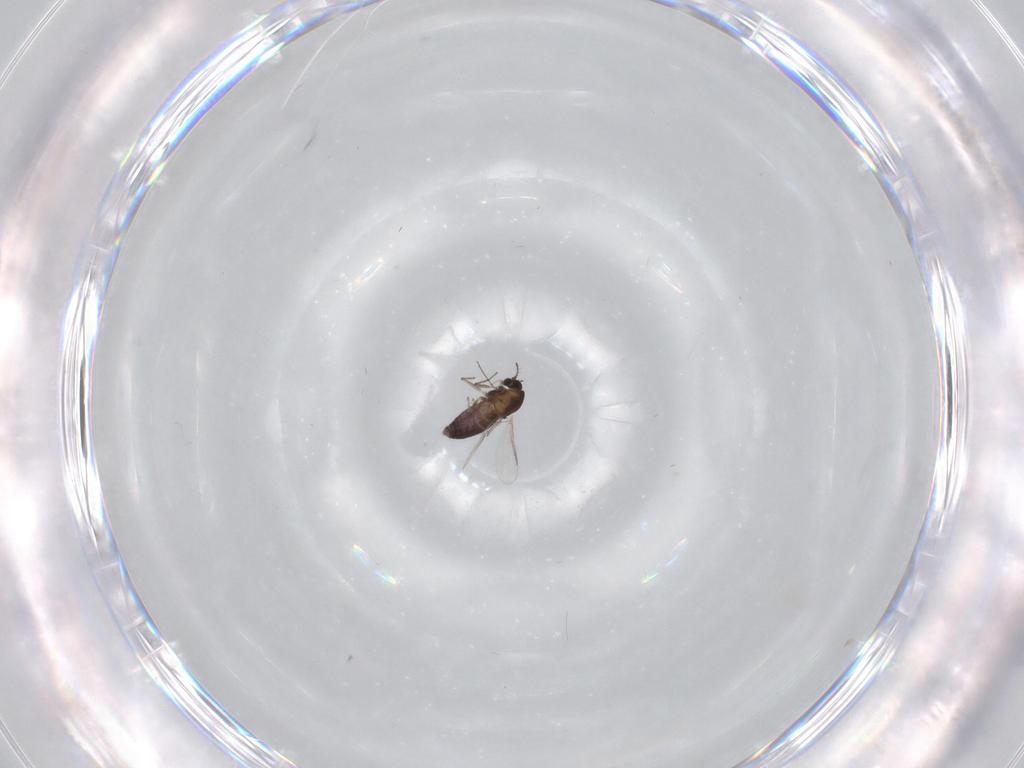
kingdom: Animalia
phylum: Arthropoda
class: Insecta
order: Diptera
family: Chironomidae
